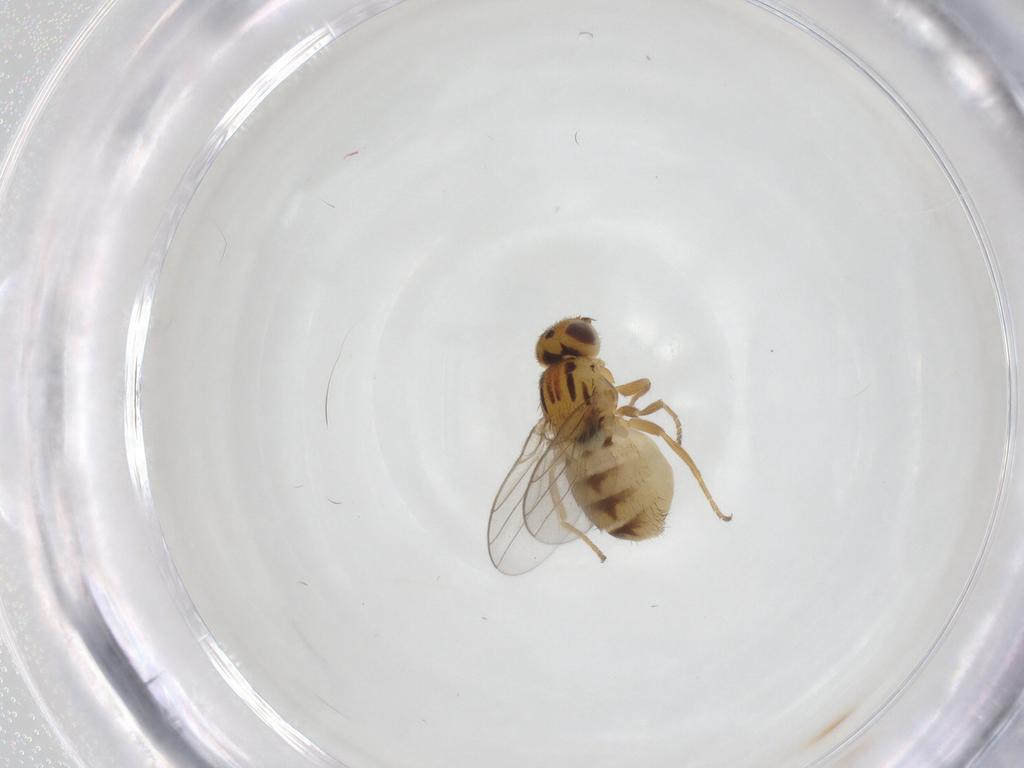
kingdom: Animalia
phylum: Arthropoda
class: Insecta
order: Diptera
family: Chloropidae
